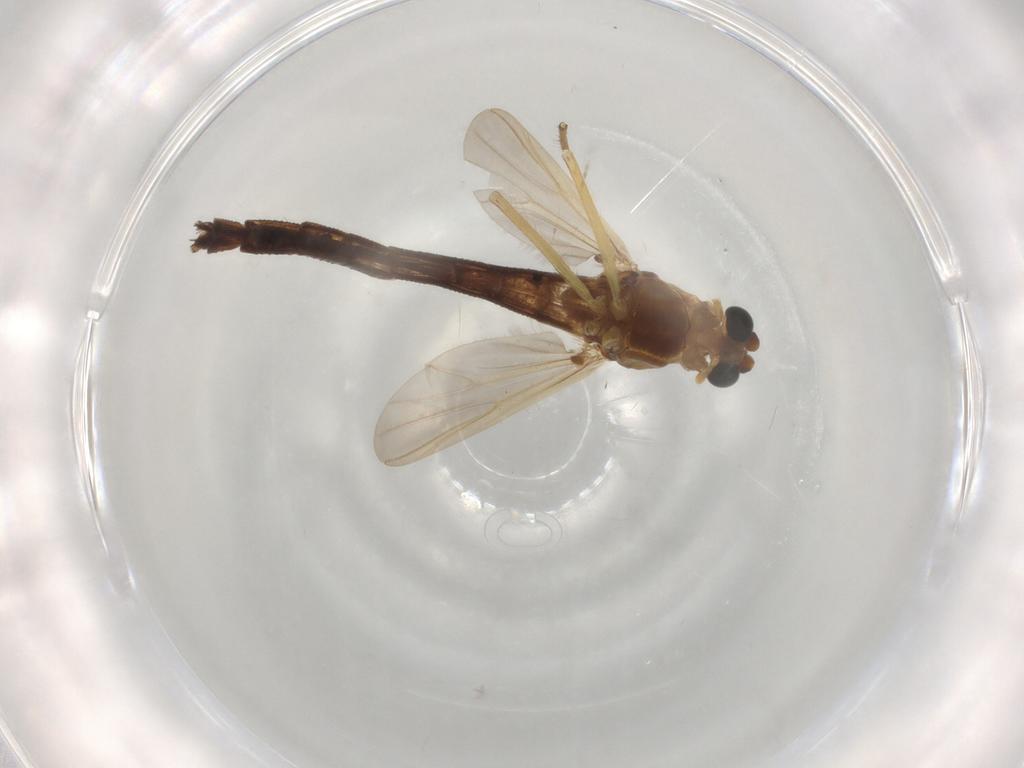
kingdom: Animalia
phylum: Arthropoda
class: Insecta
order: Diptera
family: Chironomidae
